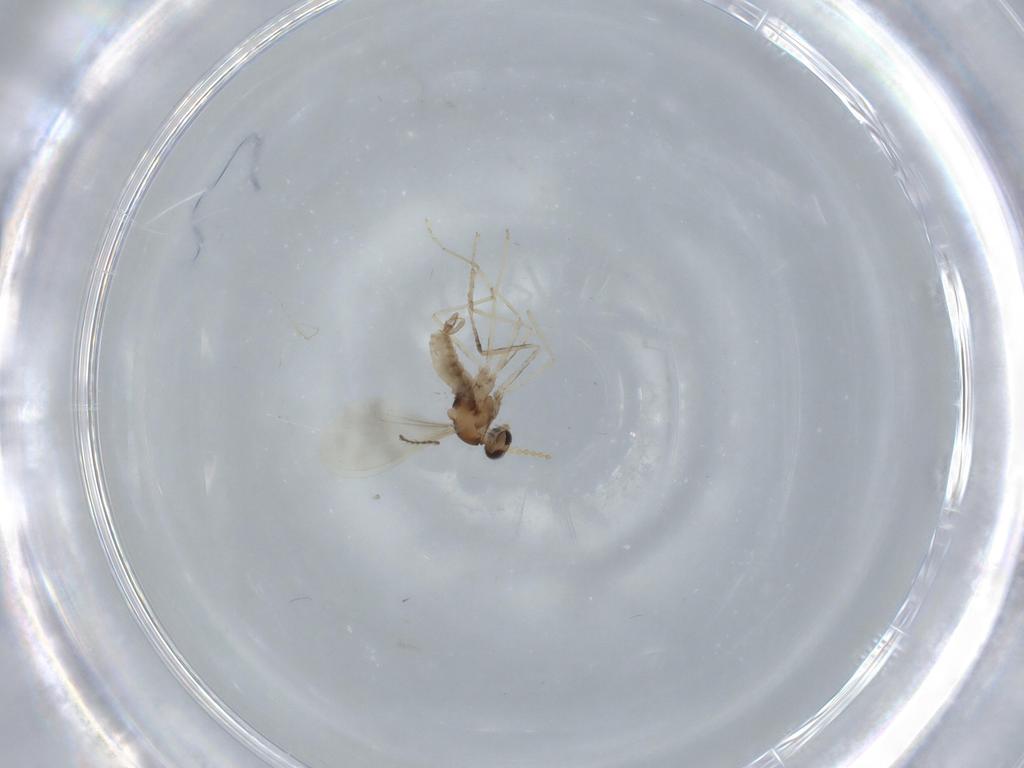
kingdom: Animalia
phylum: Arthropoda
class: Insecta
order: Diptera
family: Cecidomyiidae
